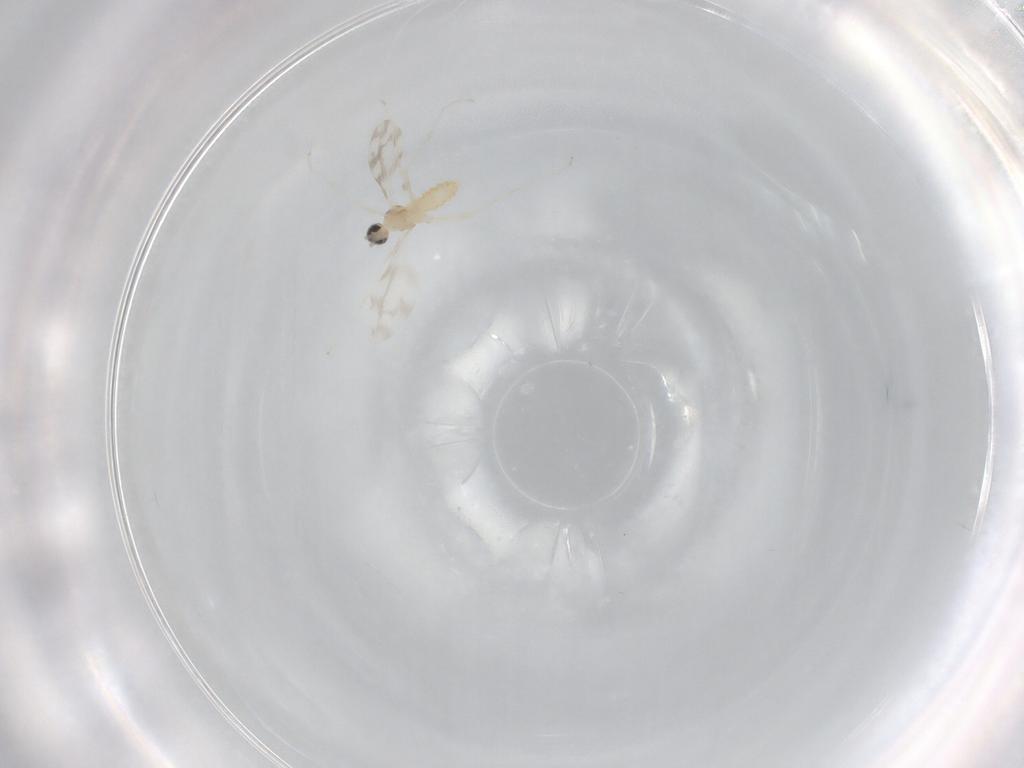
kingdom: Animalia
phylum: Arthropoda
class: Insecta
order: Diptera
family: Cecidomyiidae
